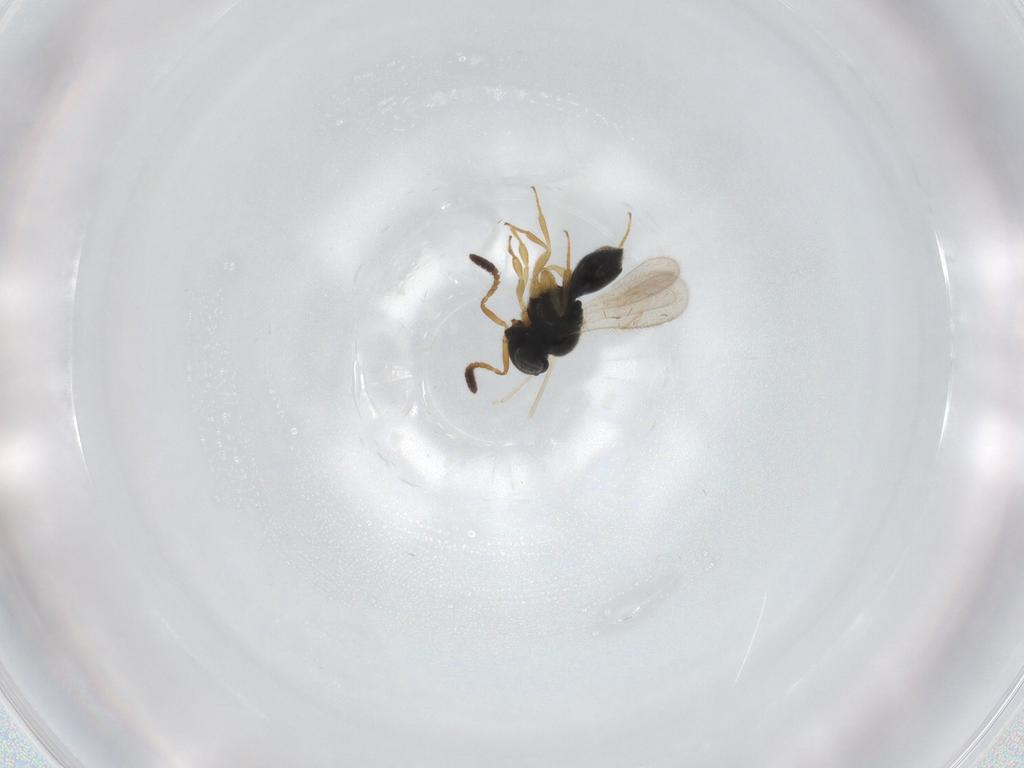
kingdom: Animalia
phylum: Arthropoda
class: Insecta
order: Hymenoptera
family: Scelionidae
